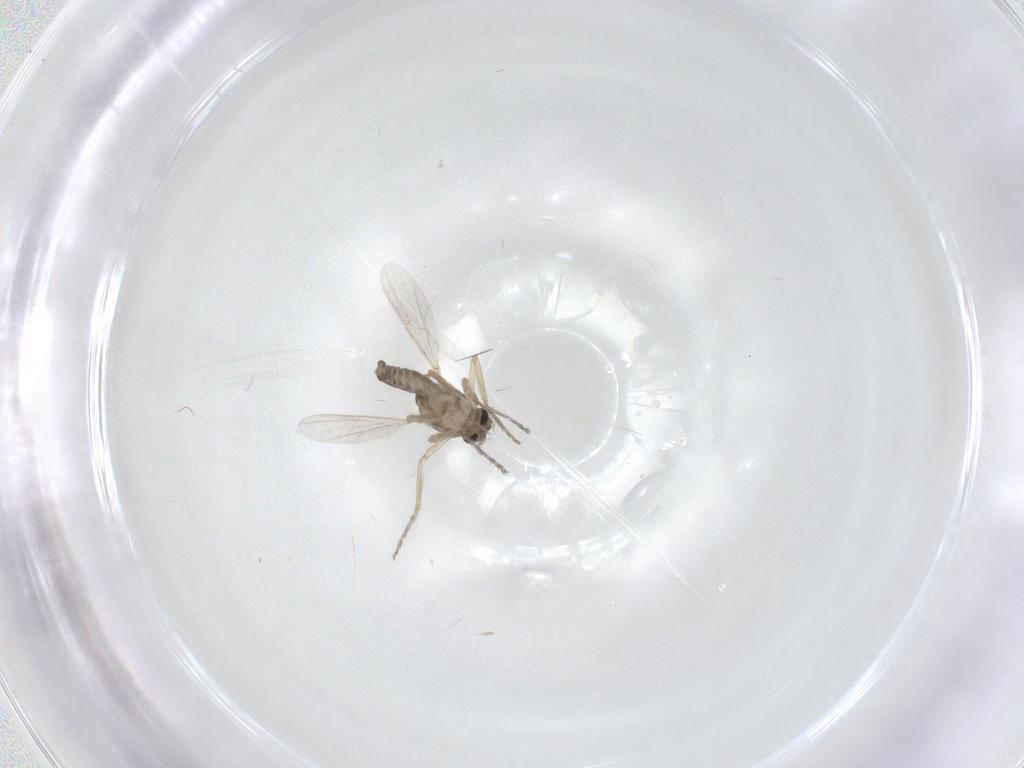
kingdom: Animalia
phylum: Arthropoda
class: Insecta
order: Diptera
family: Ceratopogonidae
